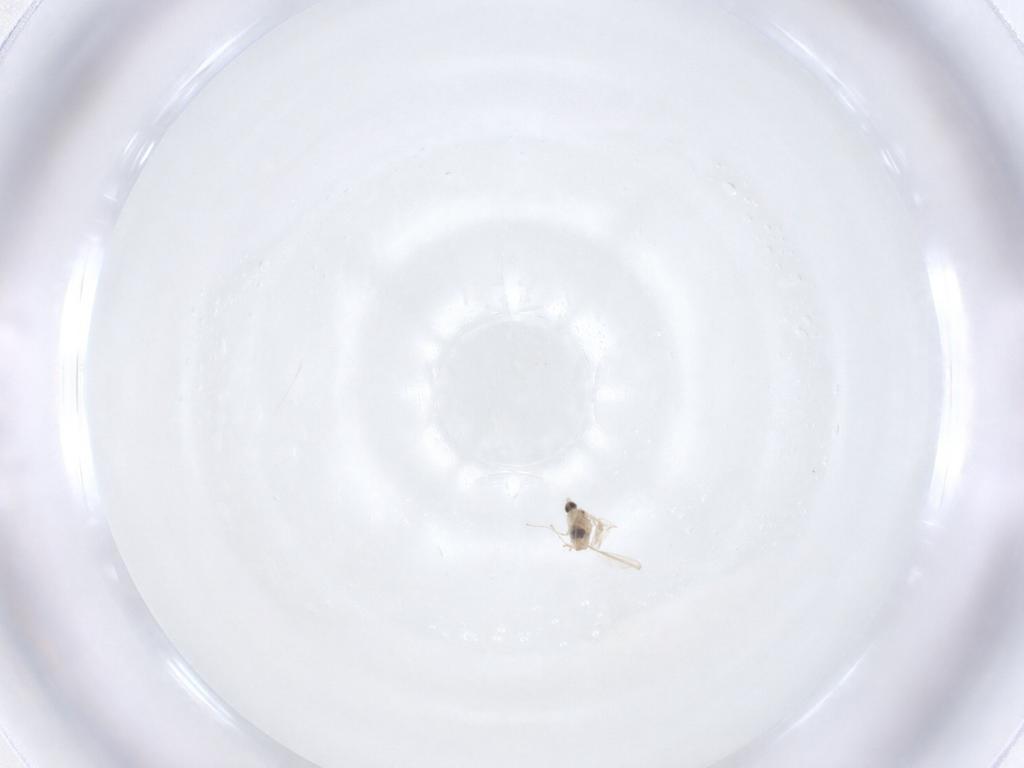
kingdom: Animalia
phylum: Arthropoda
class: Insecta
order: Diptera
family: Cecidomyiidae
